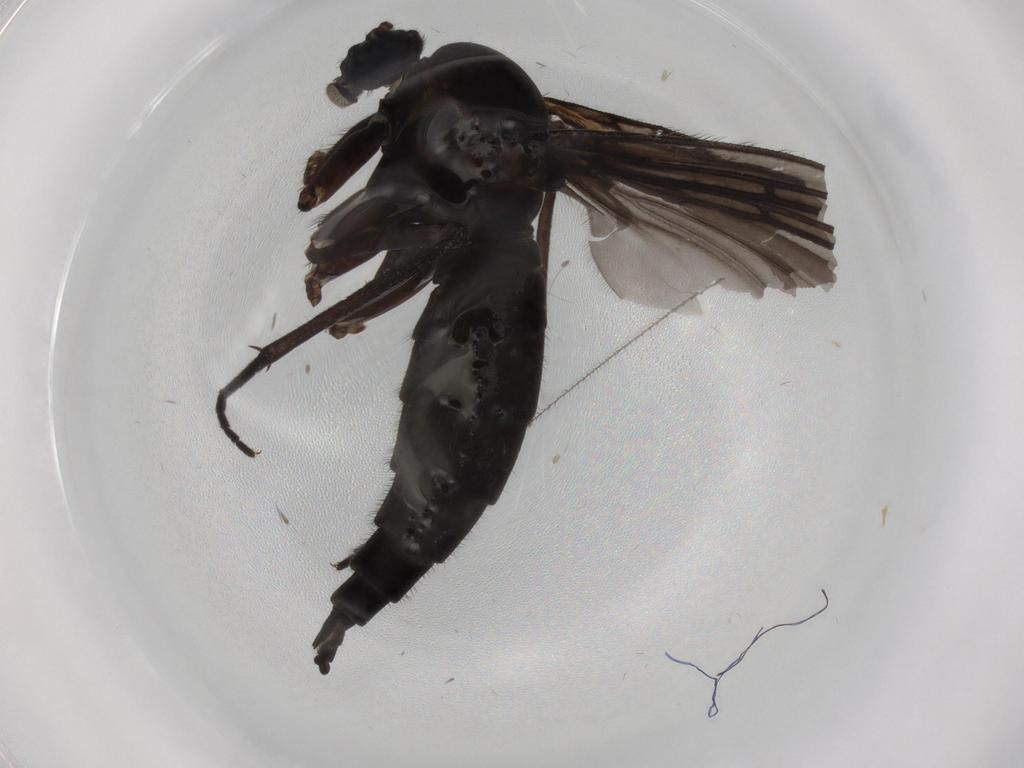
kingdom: Animalia
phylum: Arthropoda
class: Insecta
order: Diptera
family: Sciaridae
